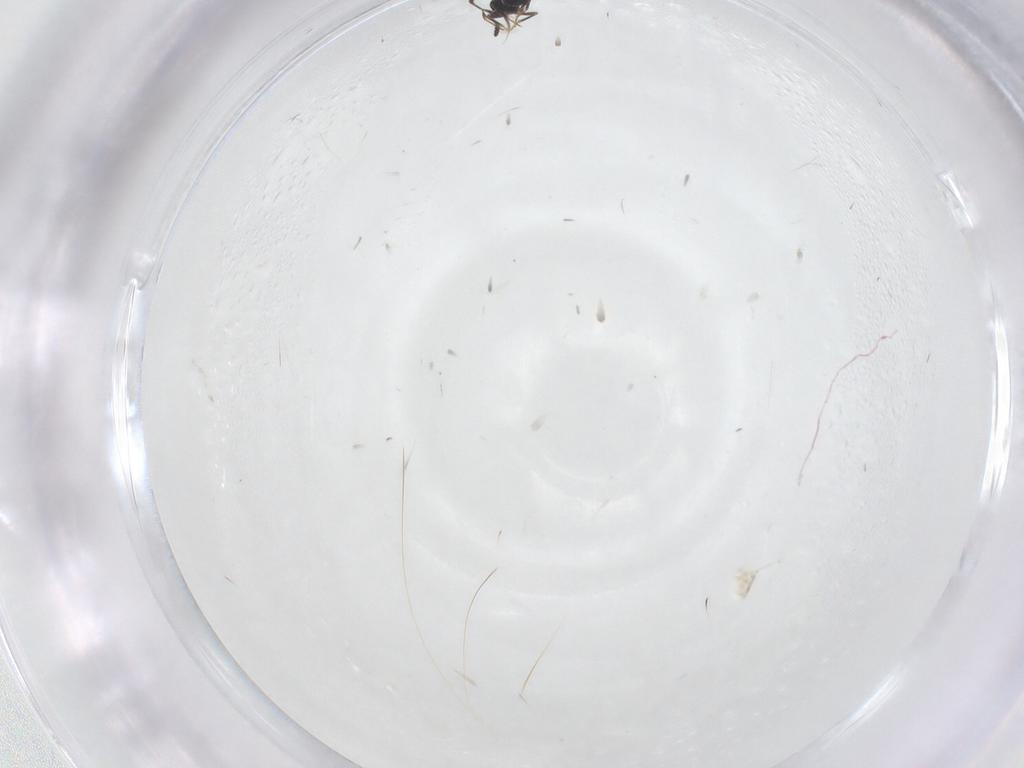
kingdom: Animalia
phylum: Arthropoda
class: Insecta
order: Hymenoptera
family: Scelionidae
